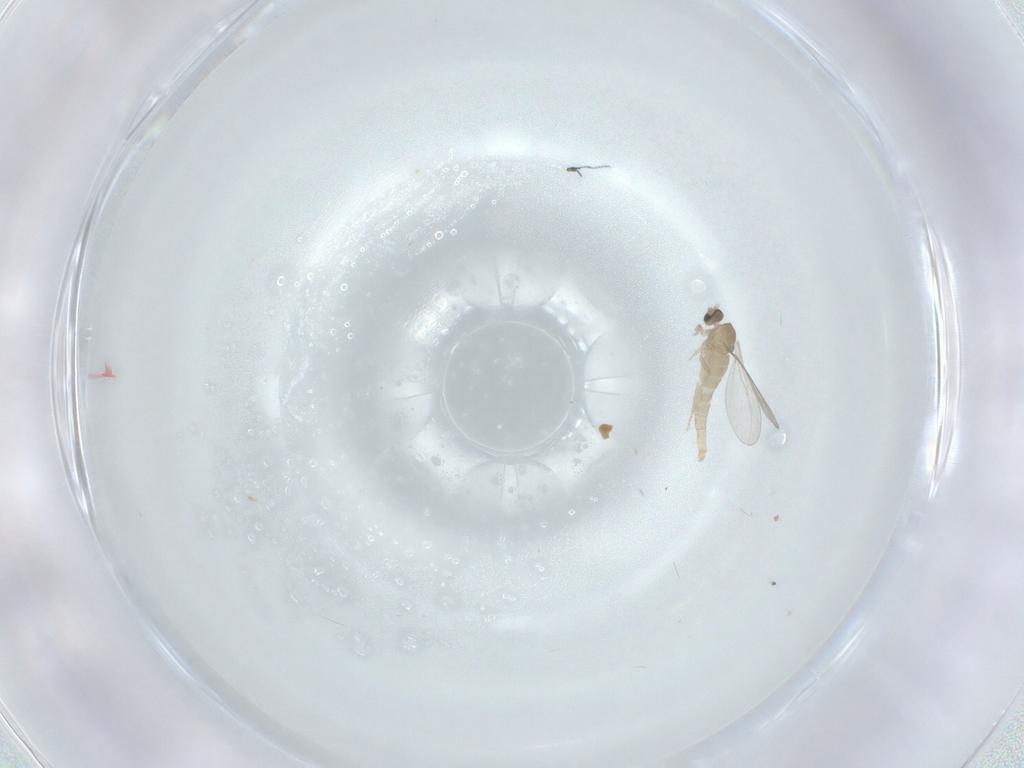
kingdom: Animalia
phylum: Arthropoda
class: Insecta
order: Diptera
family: Cecidomyiidae
